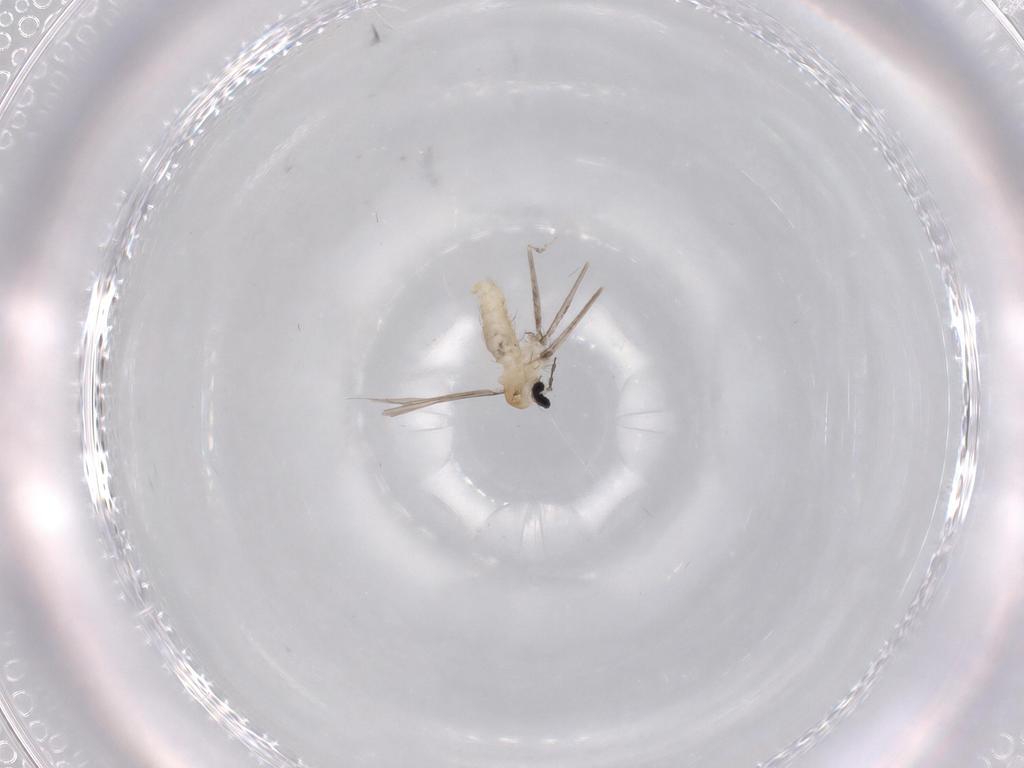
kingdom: Animalia
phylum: Arthropoda
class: Insecta
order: Diptera
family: Cecidomyiidae
